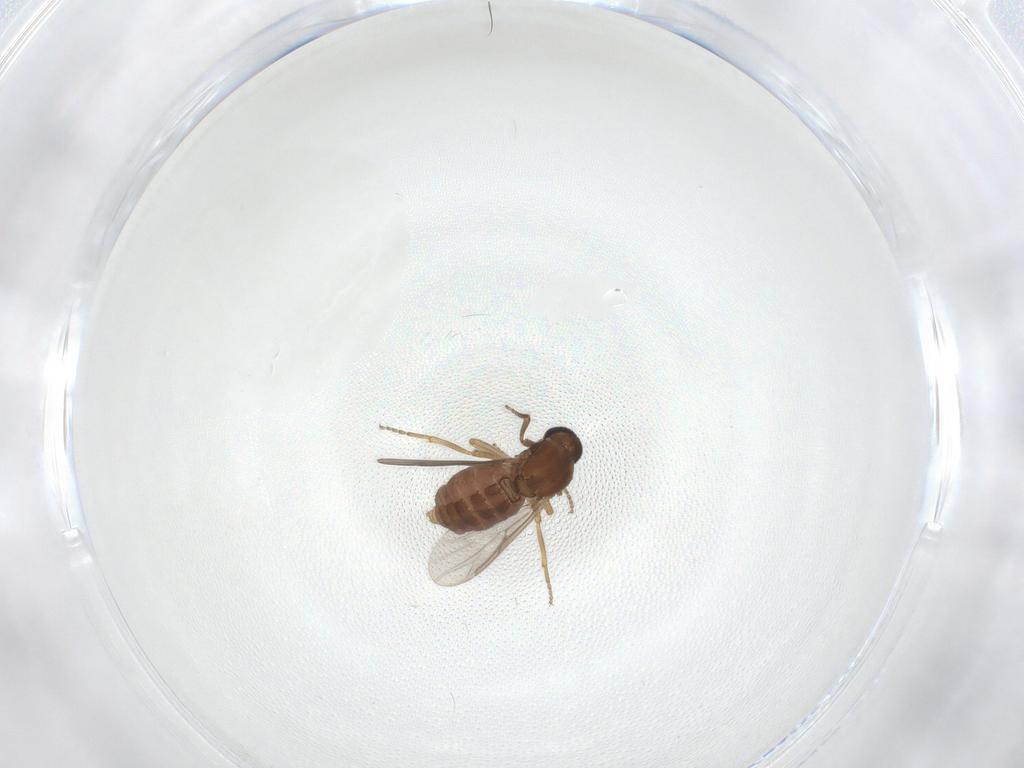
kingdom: Animalia
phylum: Arthropoda
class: Insecta
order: Diptera
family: Ceratopogonidae
